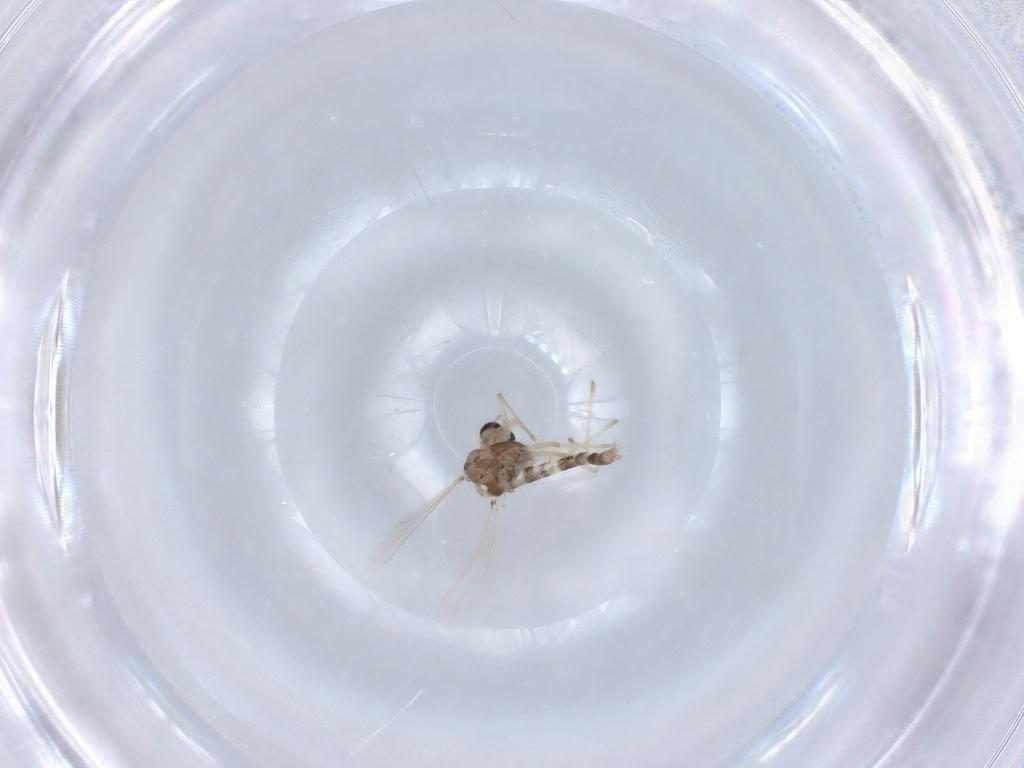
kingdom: Animalia
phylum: Arthropoda
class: Insecta
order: Diptera
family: Chironomidae
